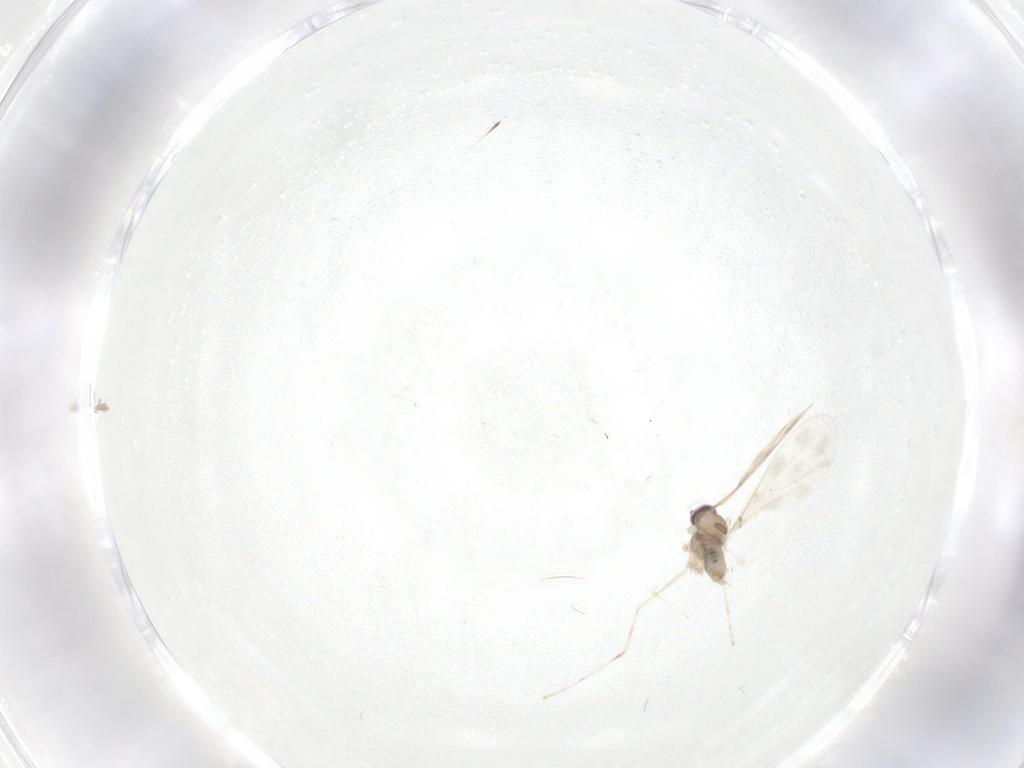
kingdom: Animalia
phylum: Arthropoda
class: Insecta
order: Diptera
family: Cecidomyiidae
